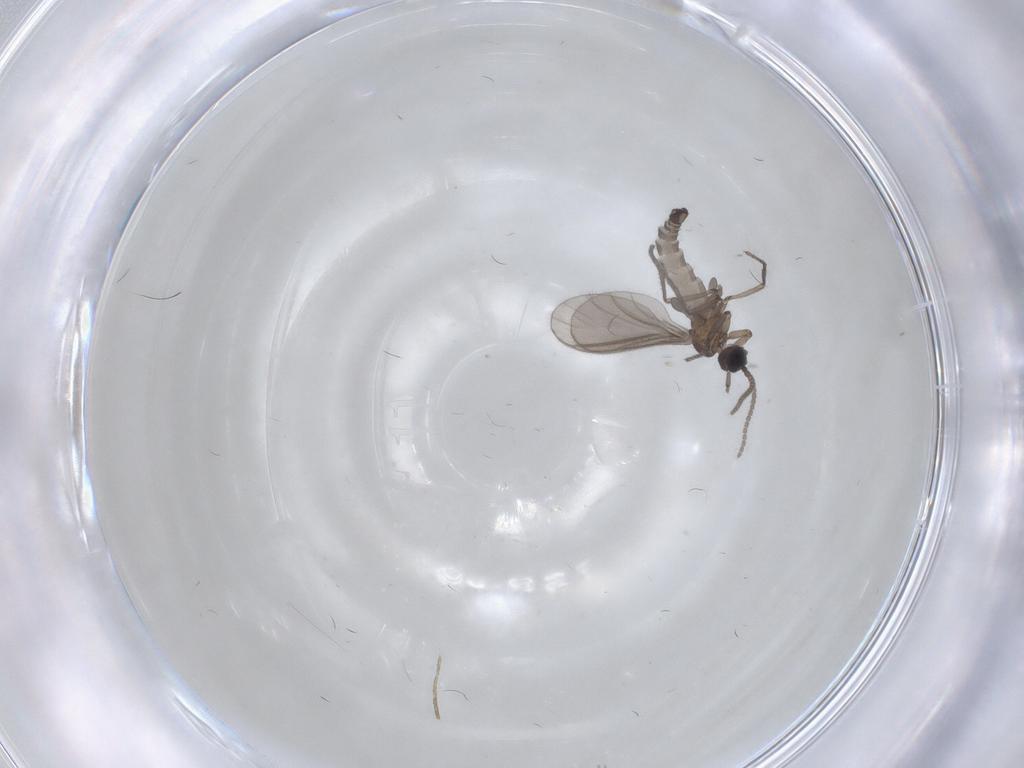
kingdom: Animalia
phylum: Arthropoda
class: Insecta
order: Diptera
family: Sciaridae
